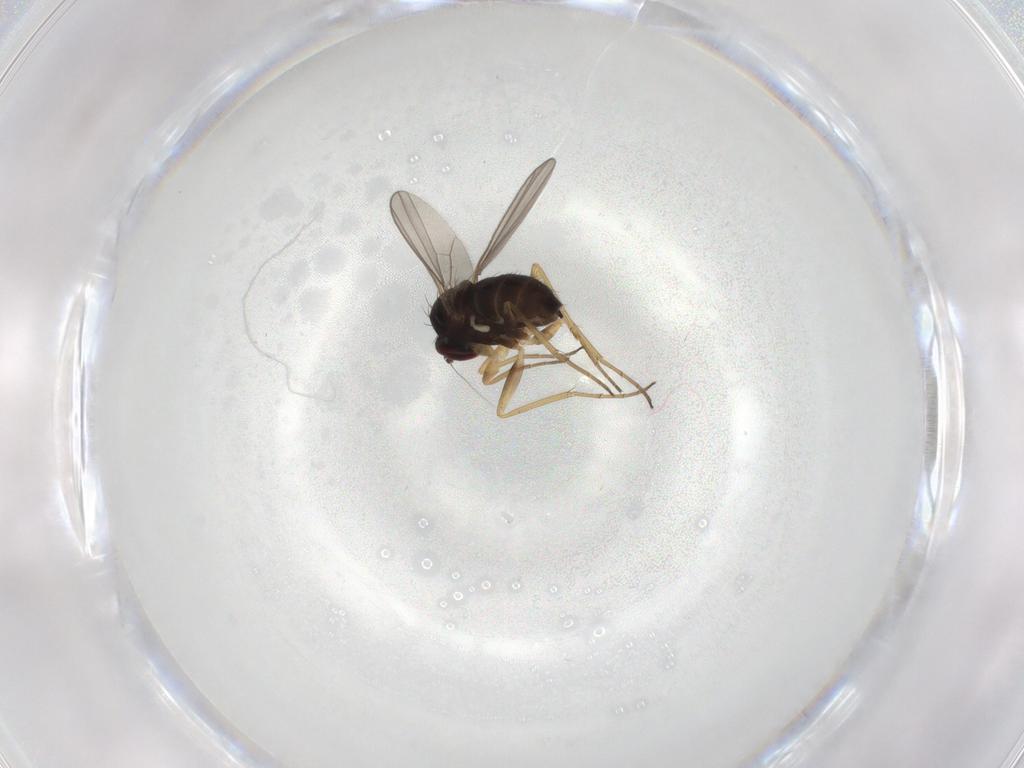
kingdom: Animalia
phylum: Arthropoda
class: Insecta
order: Diptera
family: Dolichopodidae
